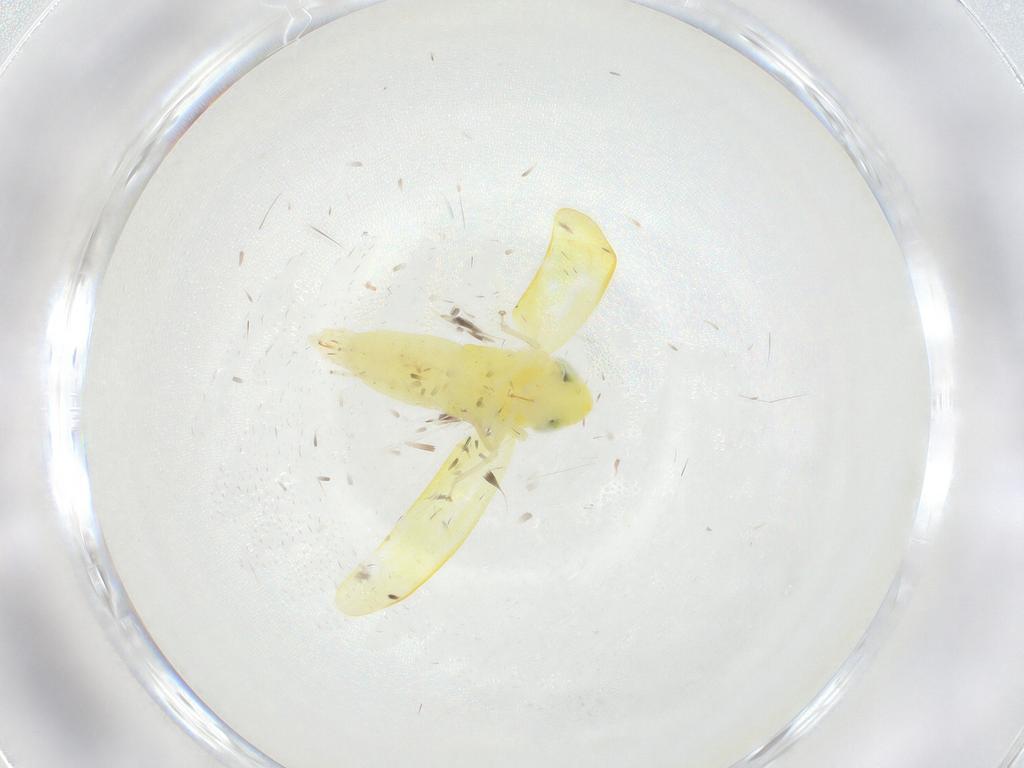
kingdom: Animalia
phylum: Arthropoda
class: Insecta
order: Hemiptera
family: Cicadellidae
